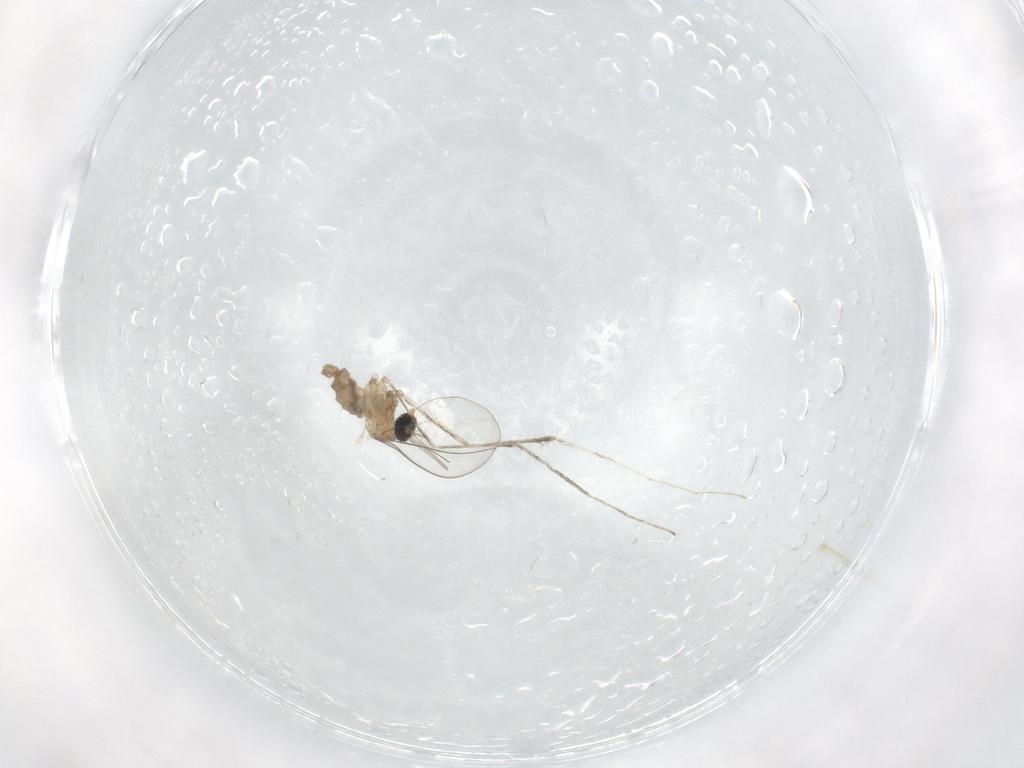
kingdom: Animalia
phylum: Arthropoda
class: Insecta
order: Diptera
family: Cecidomyiidae
